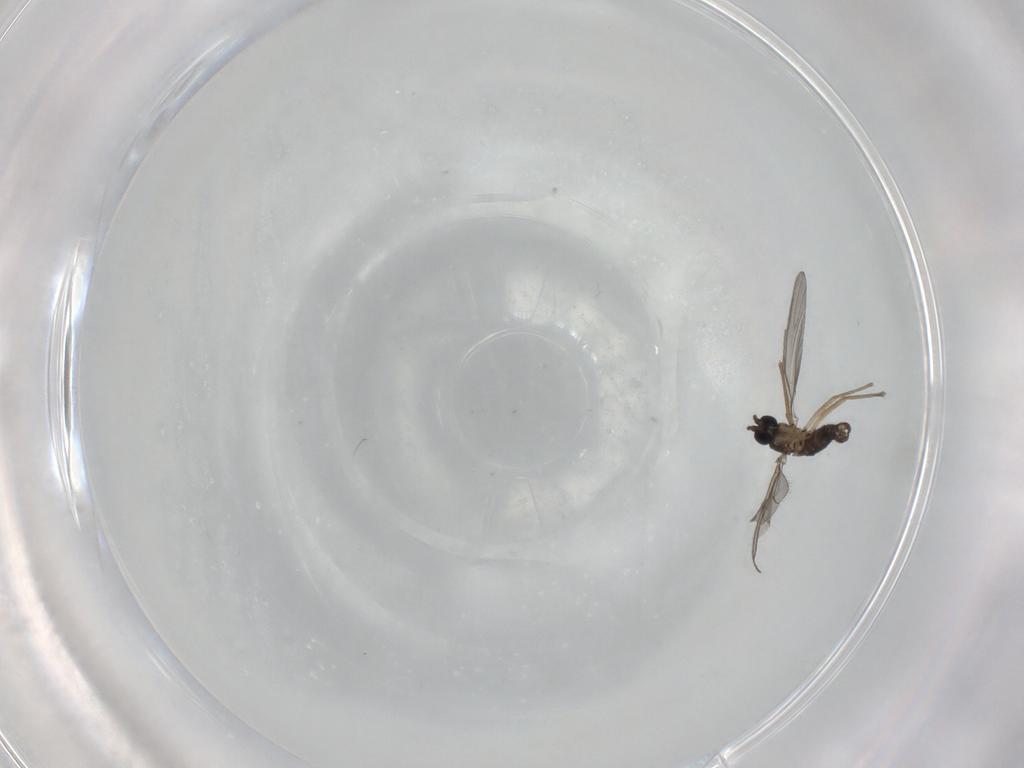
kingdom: Animalia
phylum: Arthropoda
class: Insecta
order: Diptera
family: Sciaridae
